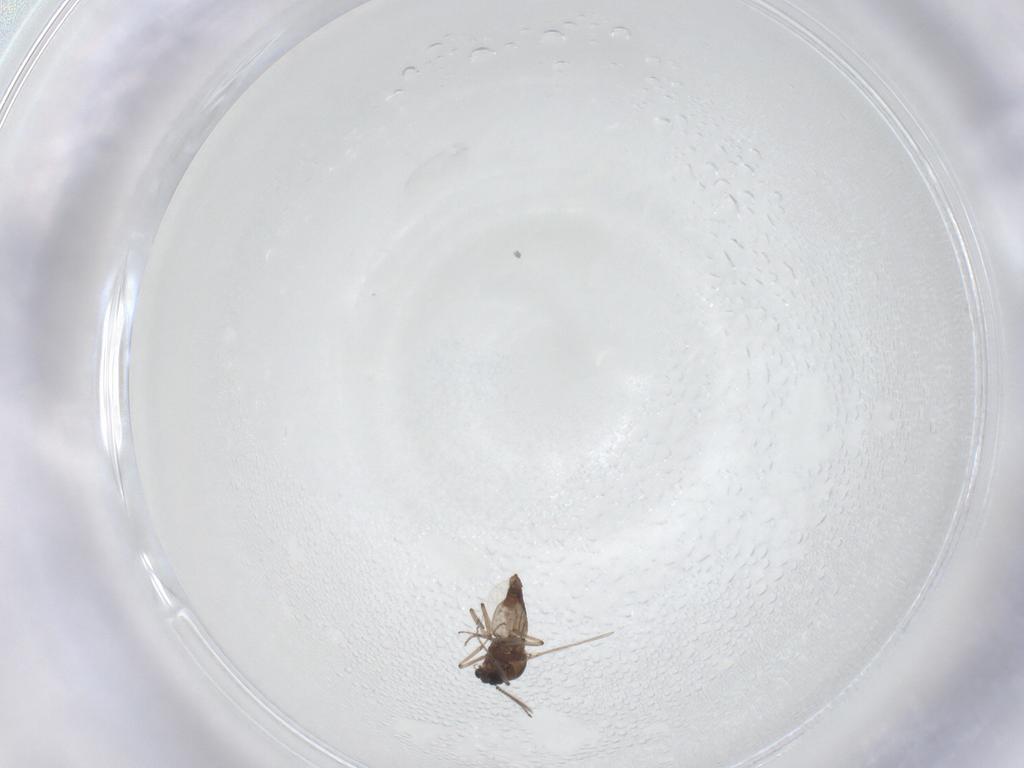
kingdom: Animalia
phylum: Arthropoda
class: Insecta
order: Diptera
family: Ceratopogonidae
